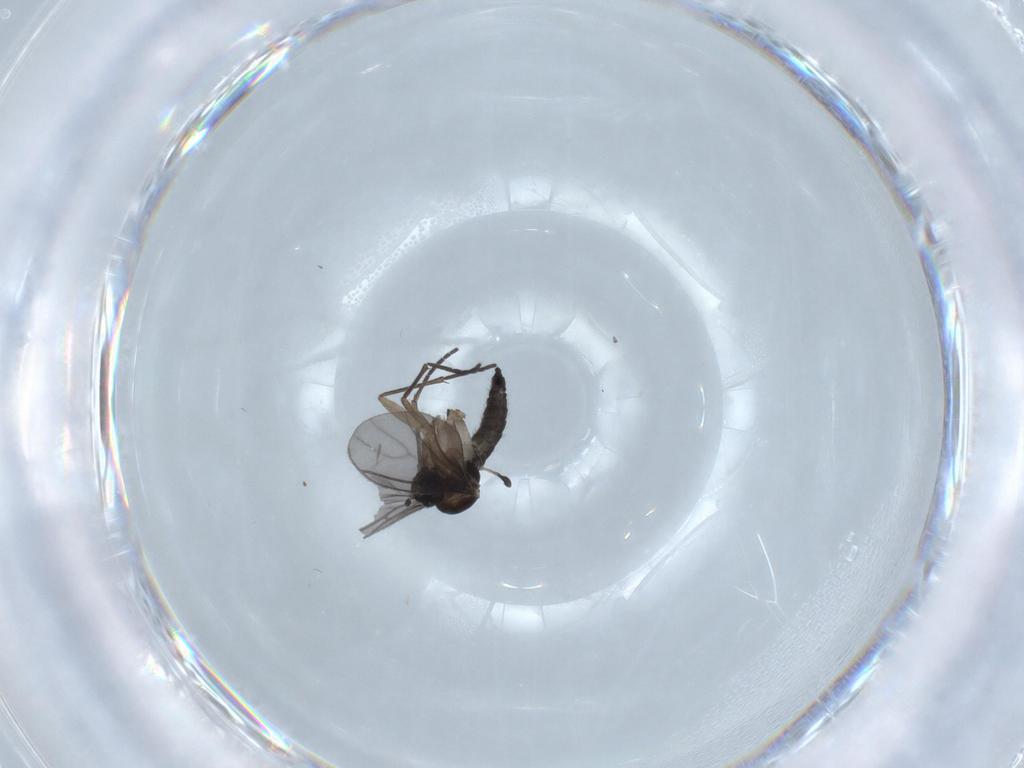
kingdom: Animalia
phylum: Arthropoda
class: Insecta
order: Diptera
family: Sciaridae
